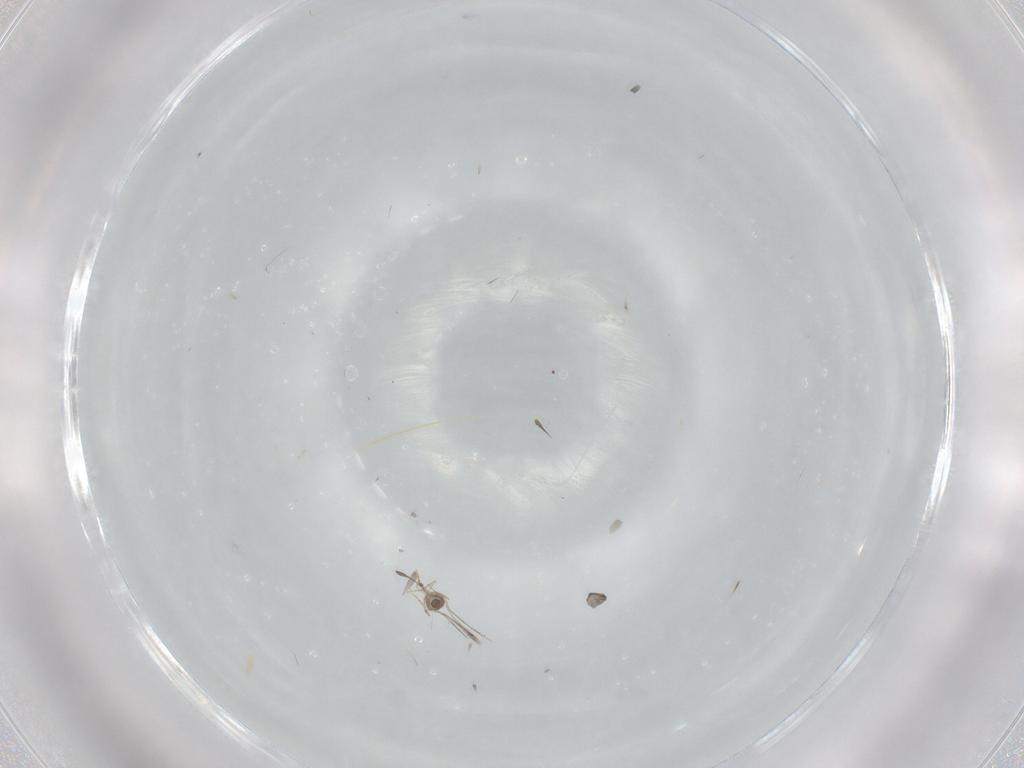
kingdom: Animalia
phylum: Arthropoda
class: Insecta
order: Hymenoptera
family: Mymaridae
